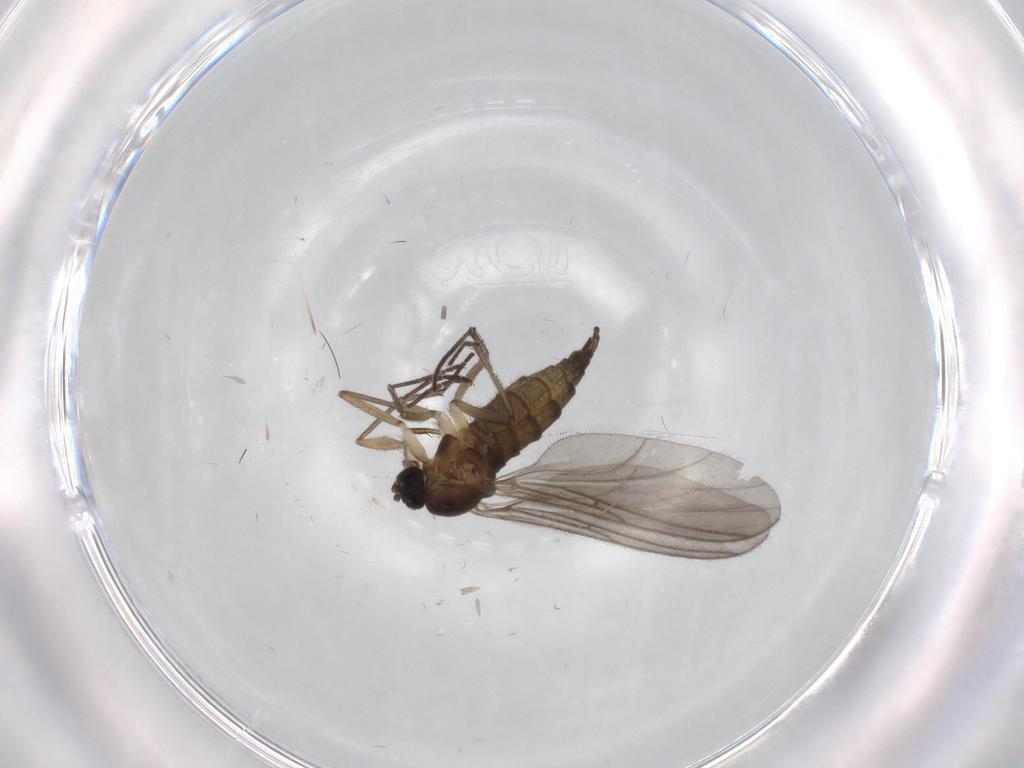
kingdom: Animalia
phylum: Arthropoda
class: Insecta
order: Diptera
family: Sciaridae
